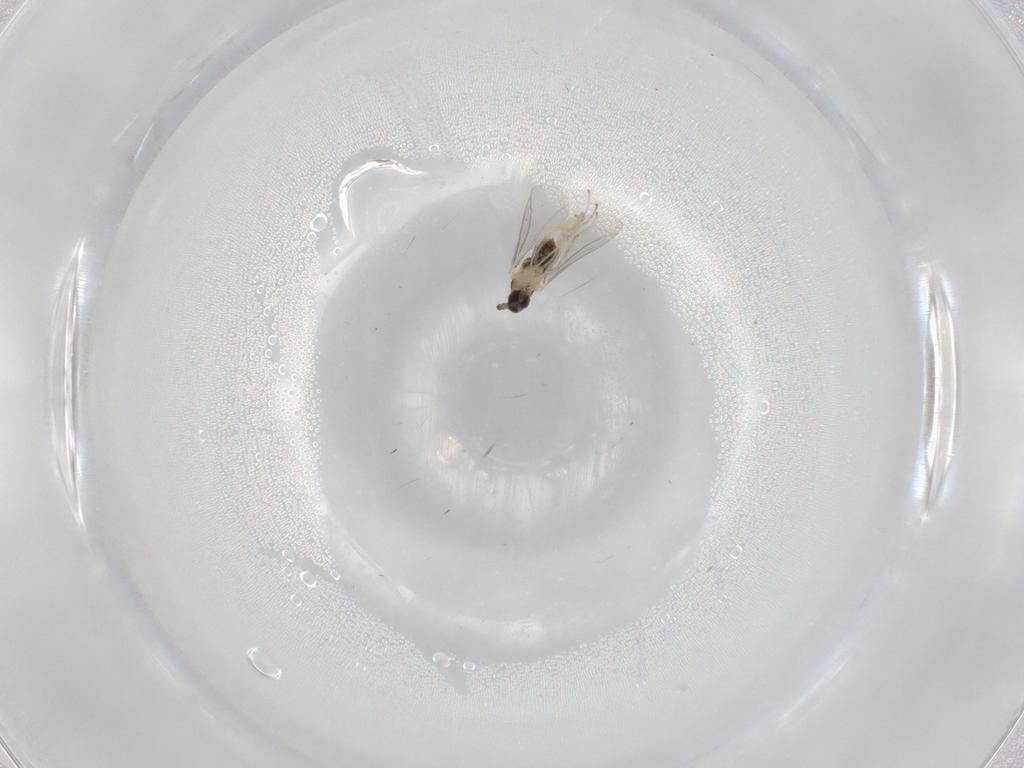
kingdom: Animalia
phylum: Arthropoda
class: Insecta
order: Diptera
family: Cecidomyiidae
